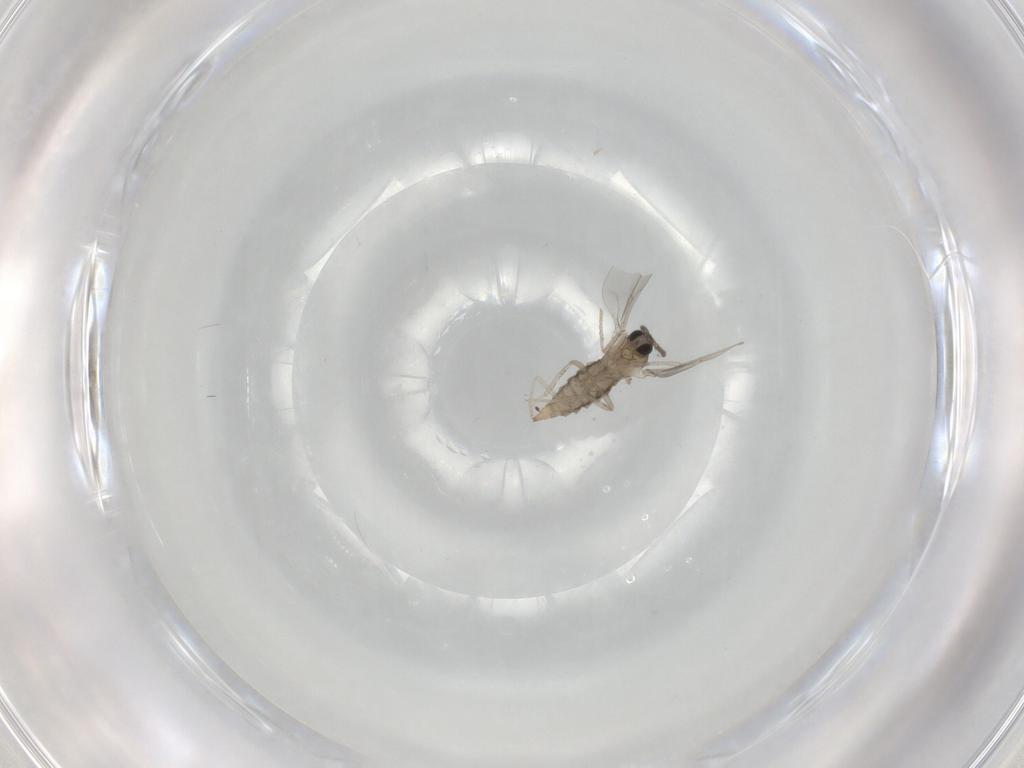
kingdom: Animalia
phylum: Arthropoda
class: Insecta
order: Diptera
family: Cecidomyiidae
